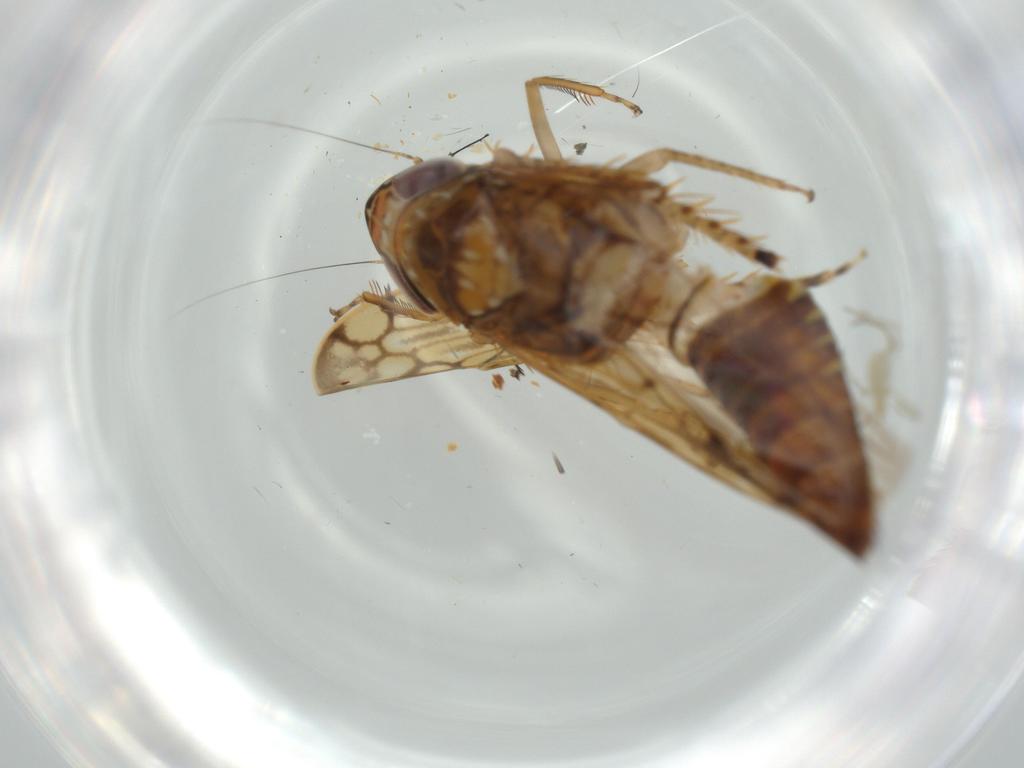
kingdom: Animalia
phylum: Arthropoda
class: Insecta
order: Hemiptera
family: Cicadellidae
